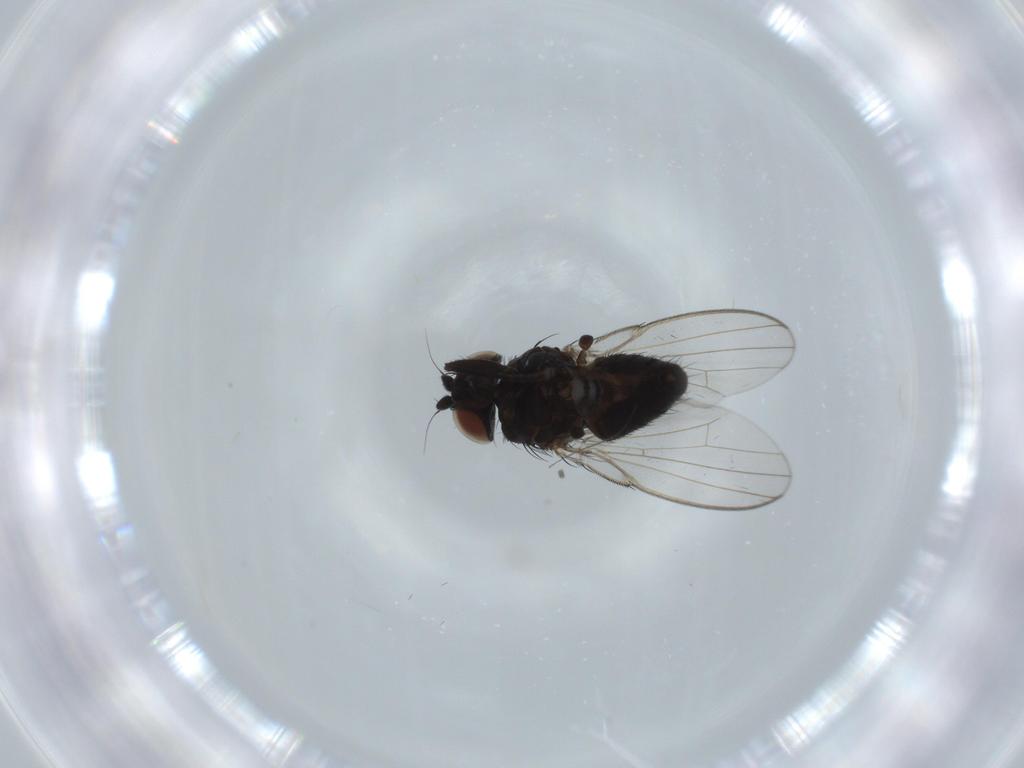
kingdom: Animalia
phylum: Arthropoda
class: Insecta
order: Diptera
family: Milichiidae
